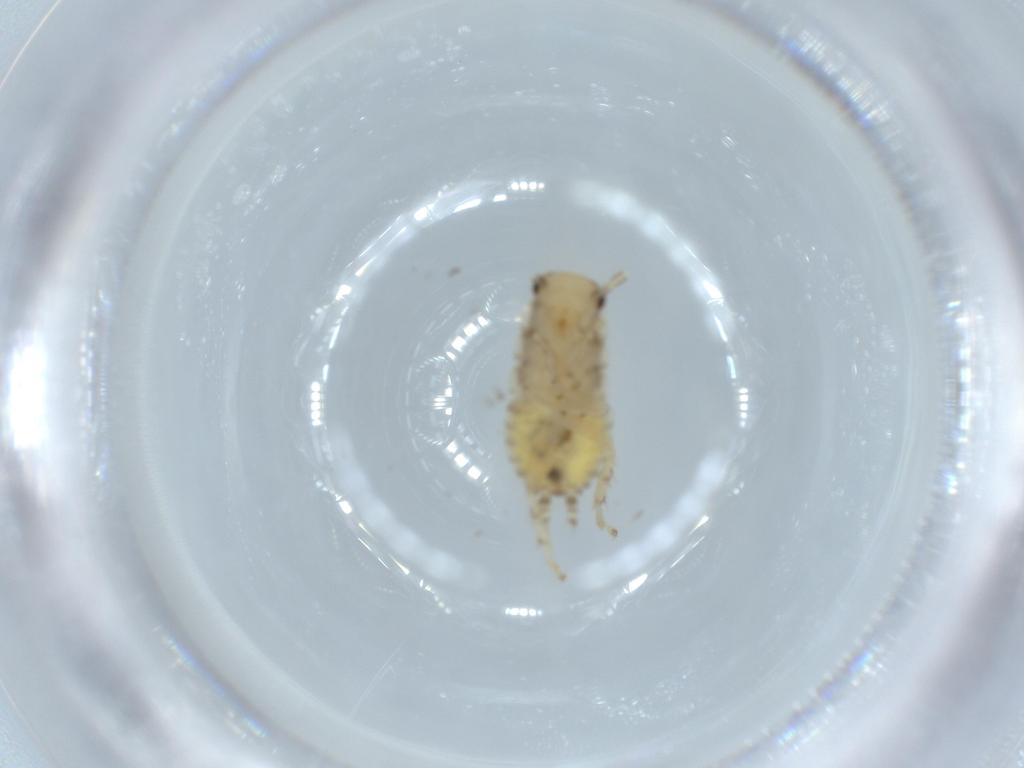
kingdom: Animalia
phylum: Arthropoda
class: Insecta
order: Blattodea
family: Ectobiidae
